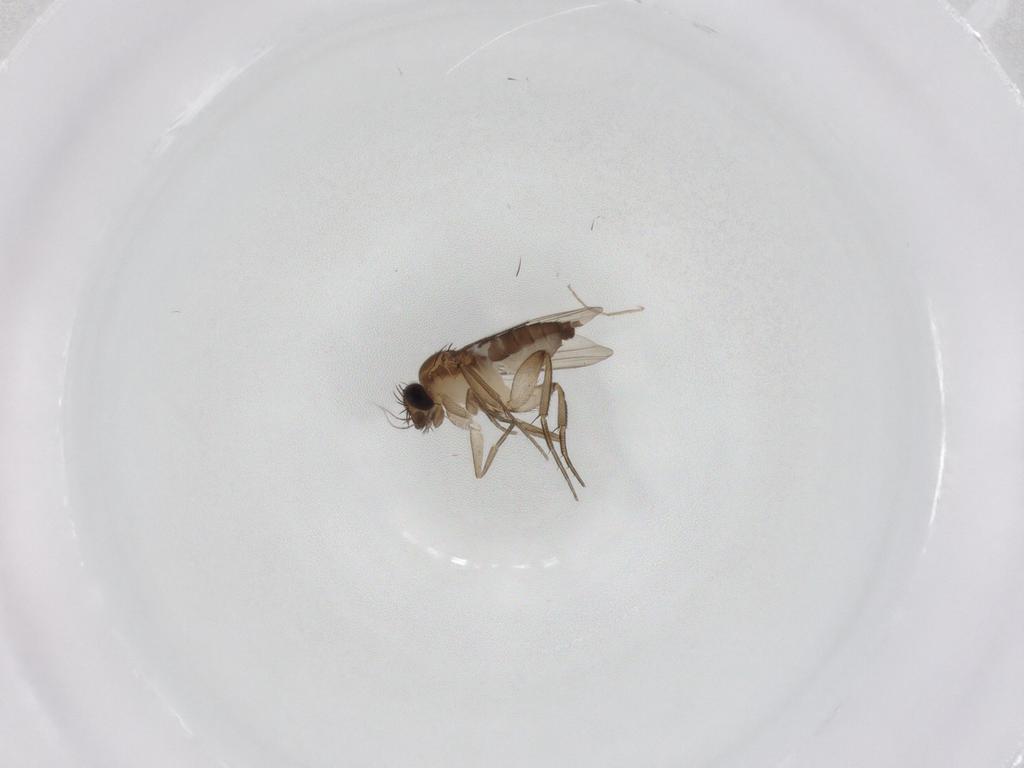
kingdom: Animalia
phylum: Arthropoda
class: Insecta
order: Diptera
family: Phoridae
